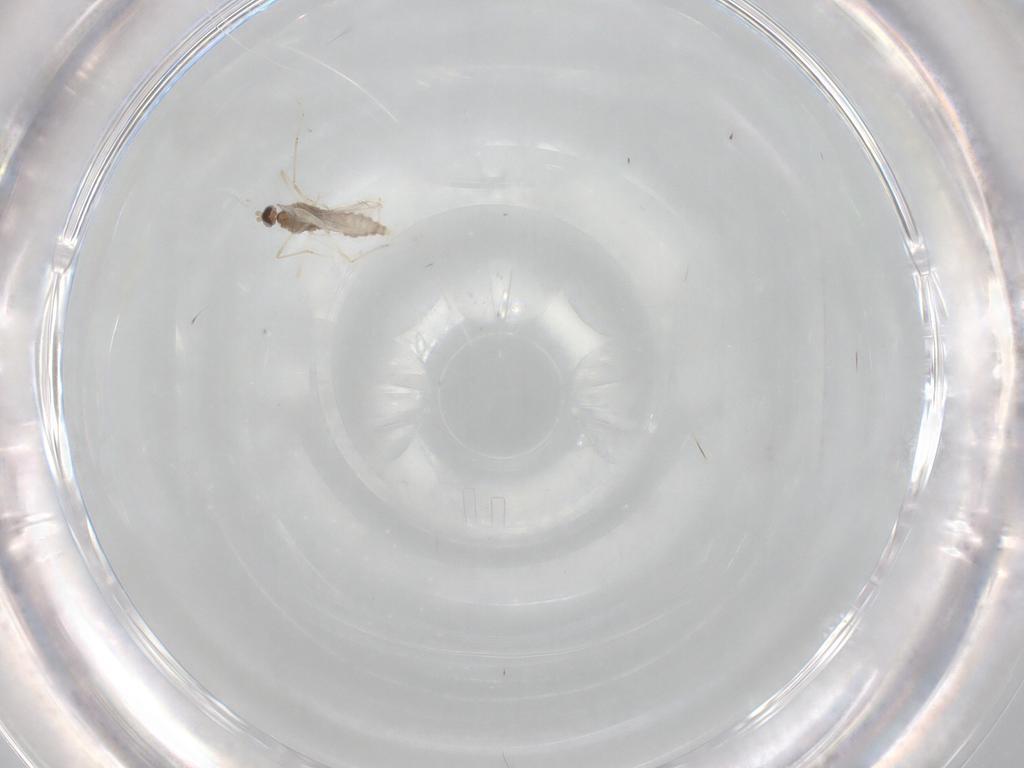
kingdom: Animalia
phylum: Arthropoda
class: Insecta
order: Diptera
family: Cecidomyiidae
